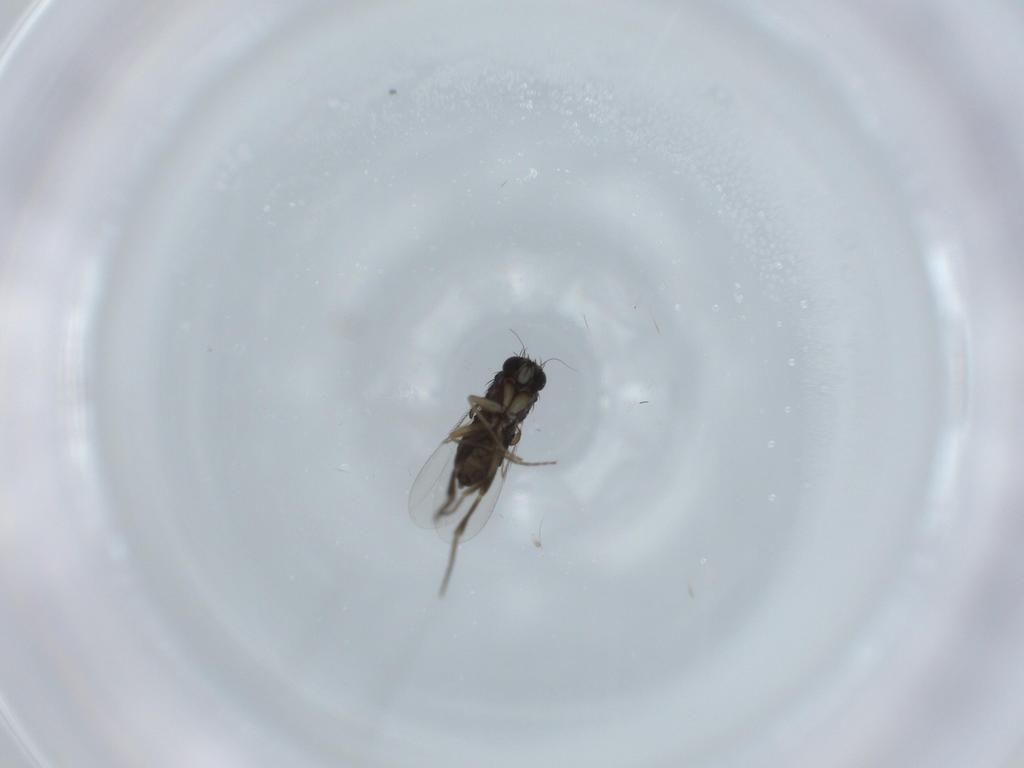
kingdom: Animalia
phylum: Arthropoda
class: Insecta
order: Diptera
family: Phoridae
